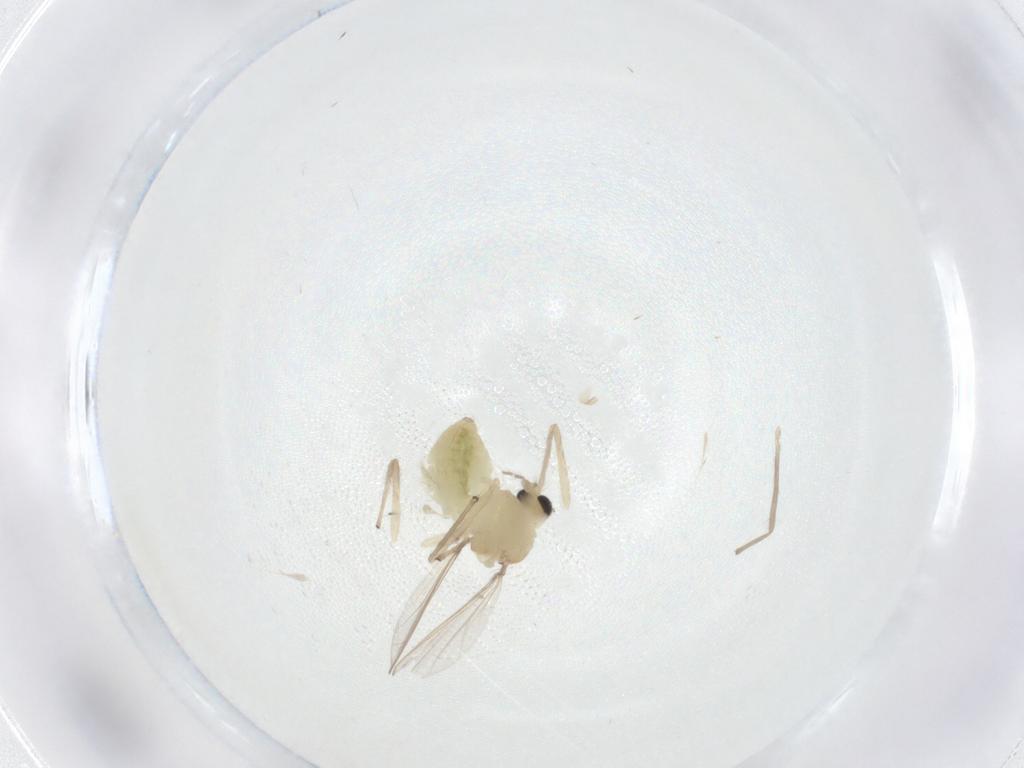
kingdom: Animalia
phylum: Arthropoda
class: Insecta
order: Diptera
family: Chironomidae
